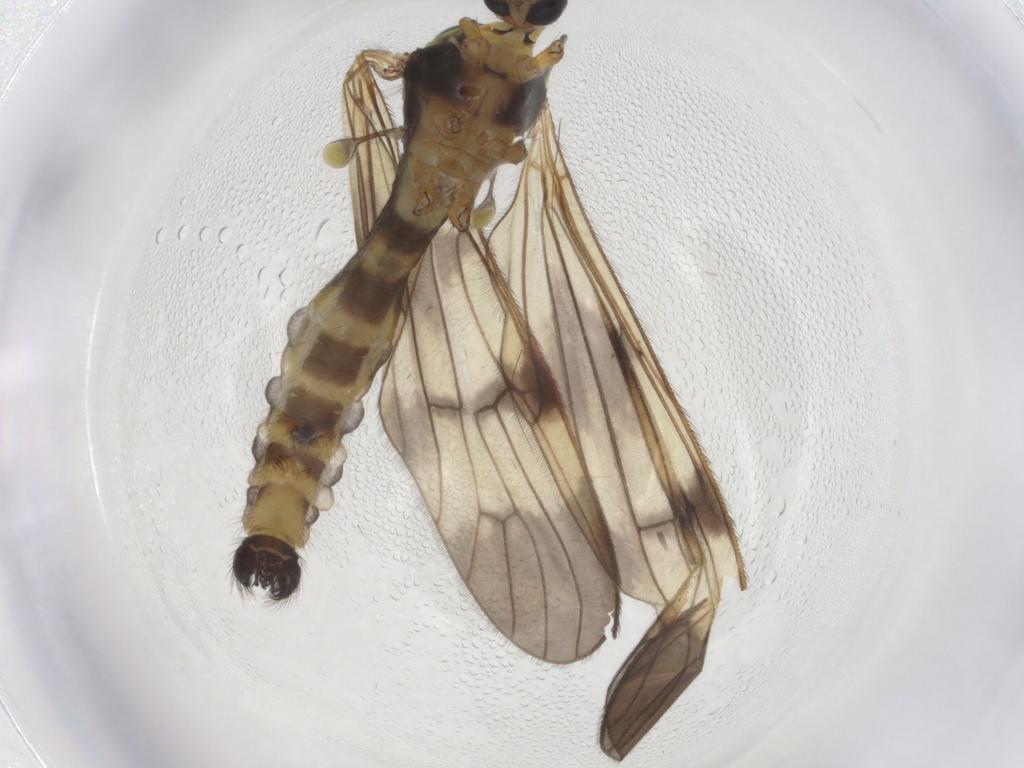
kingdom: Animalia
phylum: Arthropoda
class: Insecta
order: Diptera
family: Limoniidae
